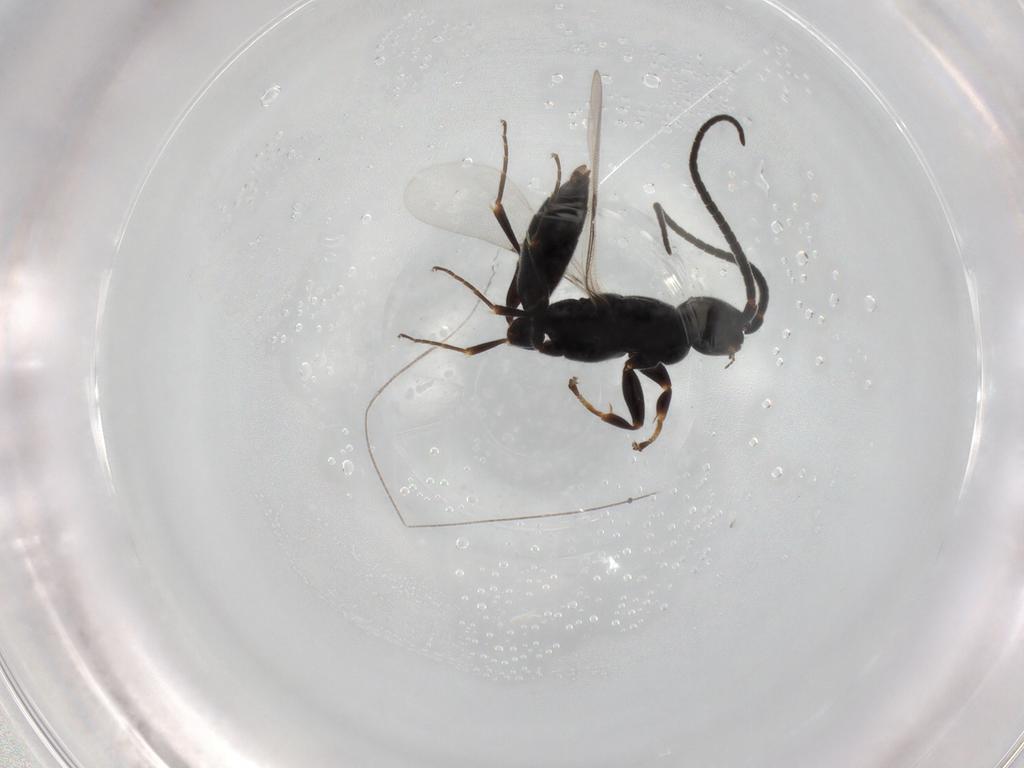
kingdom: Animalia
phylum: Arthropoda
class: Insecta
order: Hymenoptera
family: Sclerogibbidae
